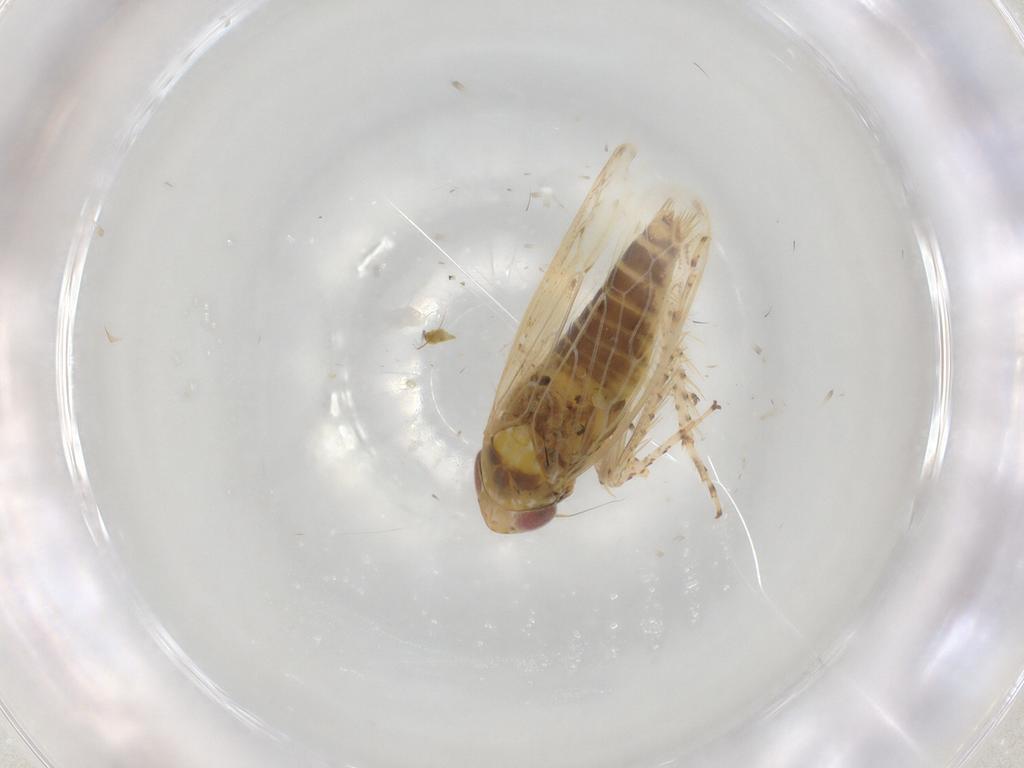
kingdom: Animalia
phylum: Arthropoda
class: Insecta
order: Hemiptera
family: Cicadellidae
